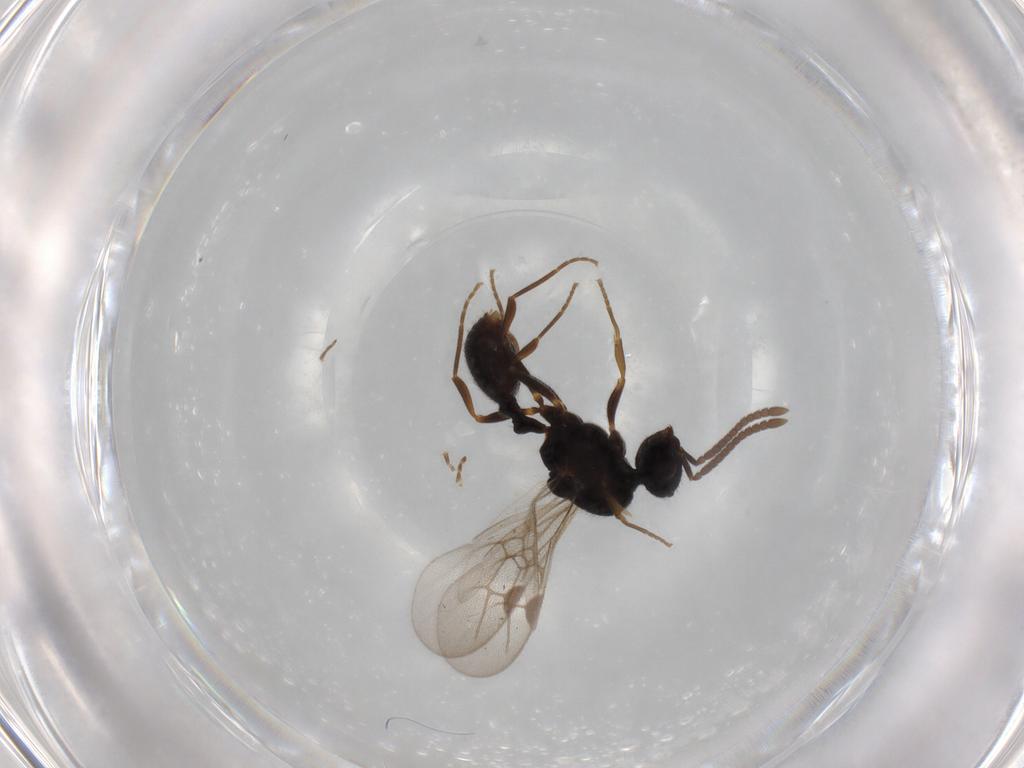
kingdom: Animalia
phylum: Arthropoda
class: Insecta
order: Hymenoptera
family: Formicidae
